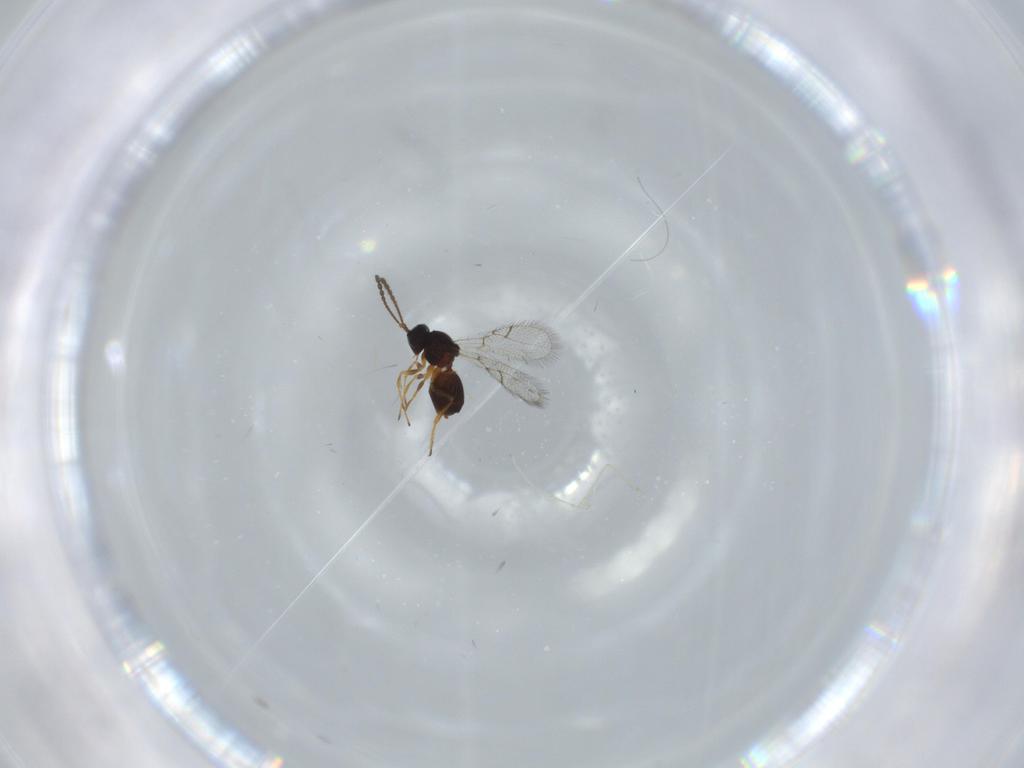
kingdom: Animalia
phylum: Arthropoda
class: Insecta
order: Hymenoptera
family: Figitidae
